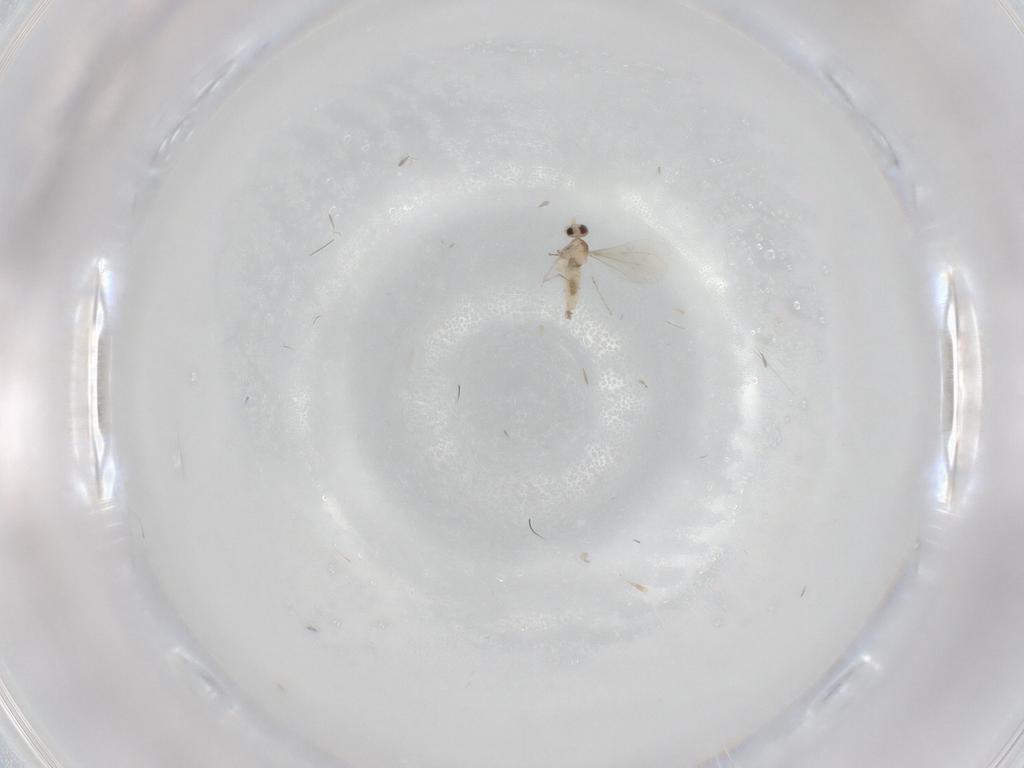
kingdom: Animalia
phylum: Arthropoda
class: Insecta
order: Diptera
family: Cecidomyiidae
